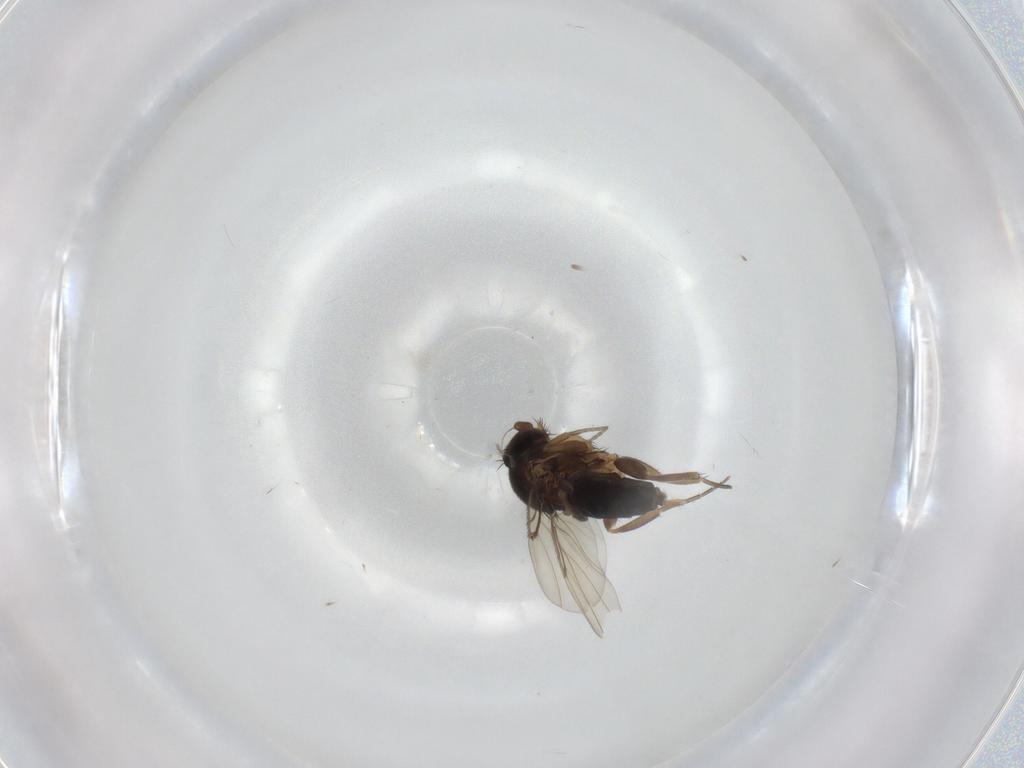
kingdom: Animalia
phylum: Arthropoda
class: Insecta
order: Diptera
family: Phoridae
